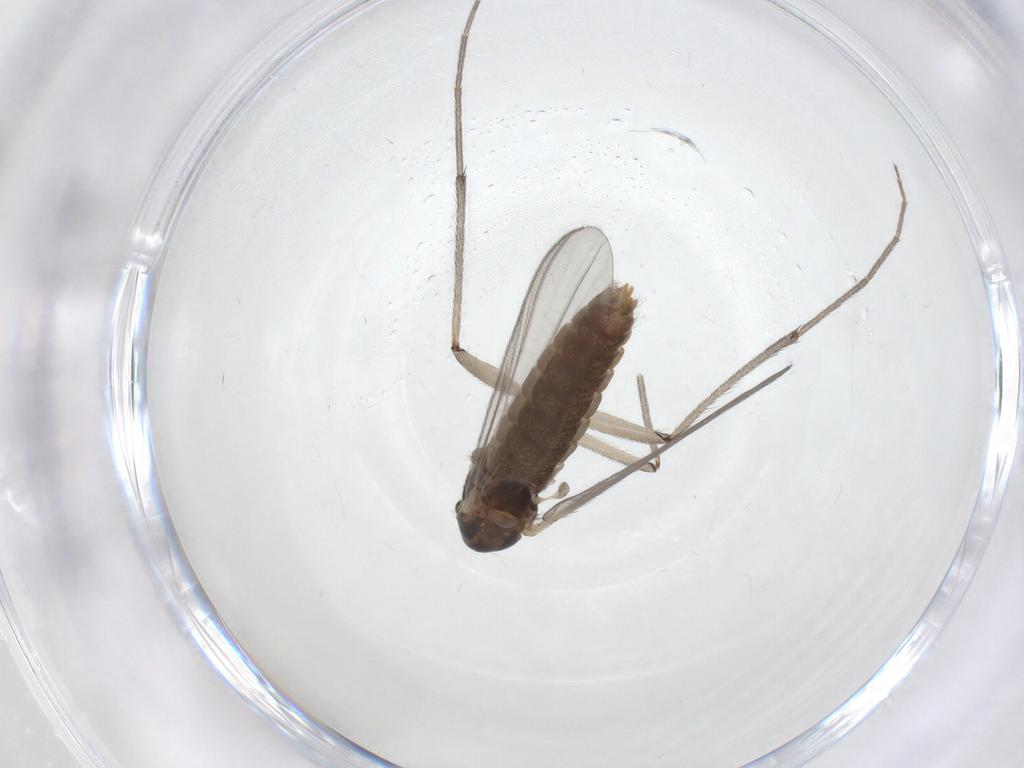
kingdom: Animalia
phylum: Arthropoda
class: Insecta
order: Diptera
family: Chironomidae
